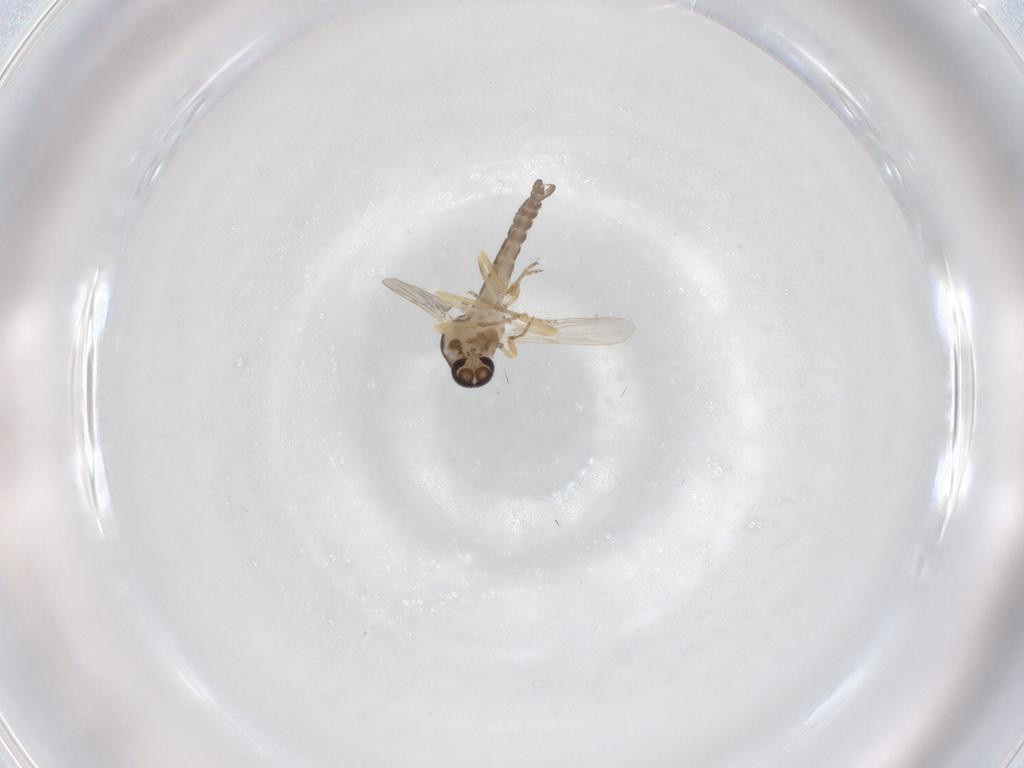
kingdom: Animalia
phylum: Arthropoda
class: Insecta
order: Diptera
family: Ceratopogonidae
